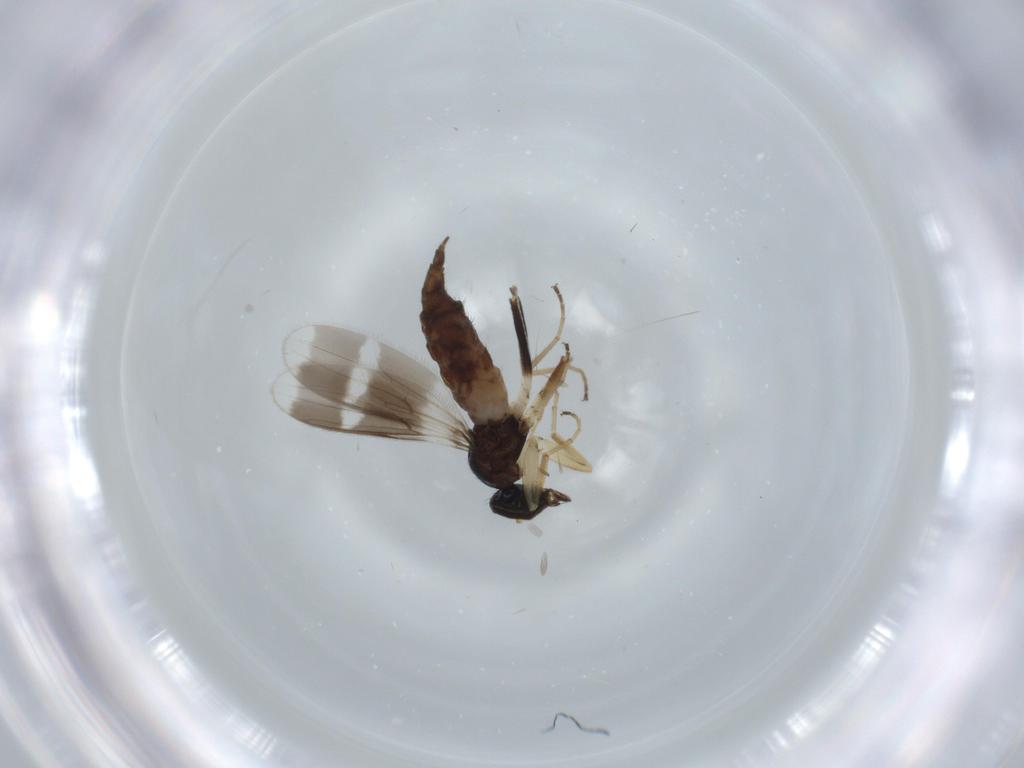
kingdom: Animalia
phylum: Arthropoda
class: Insecta
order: Diptera
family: Hybotidae
